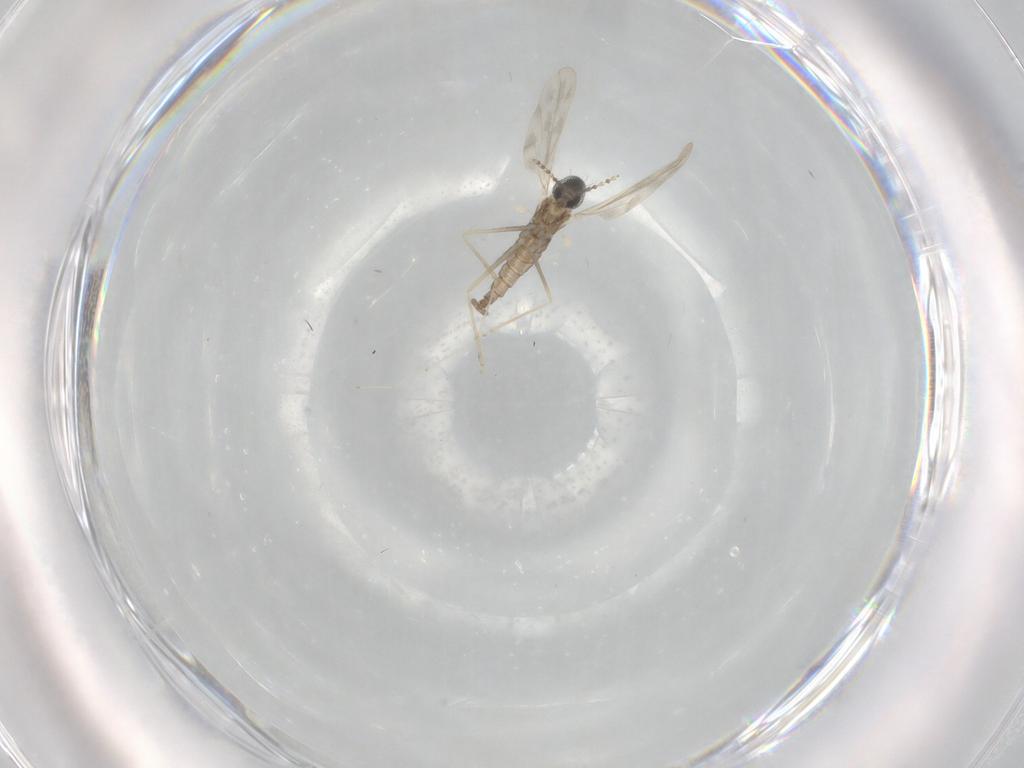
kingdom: Animalia
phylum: Arthropoda
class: Insecta
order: Diptera
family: Cecidomyiidae
